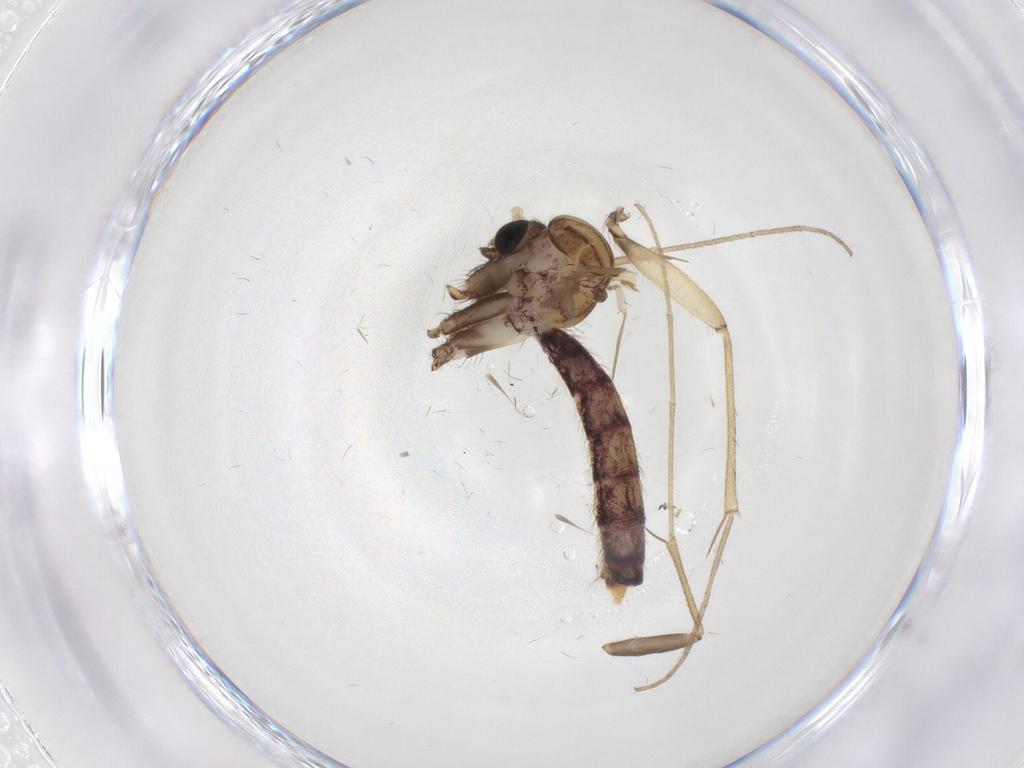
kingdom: Animalia
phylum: Arthropoda
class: Insecta
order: Diptera
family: Mycetophilidae
